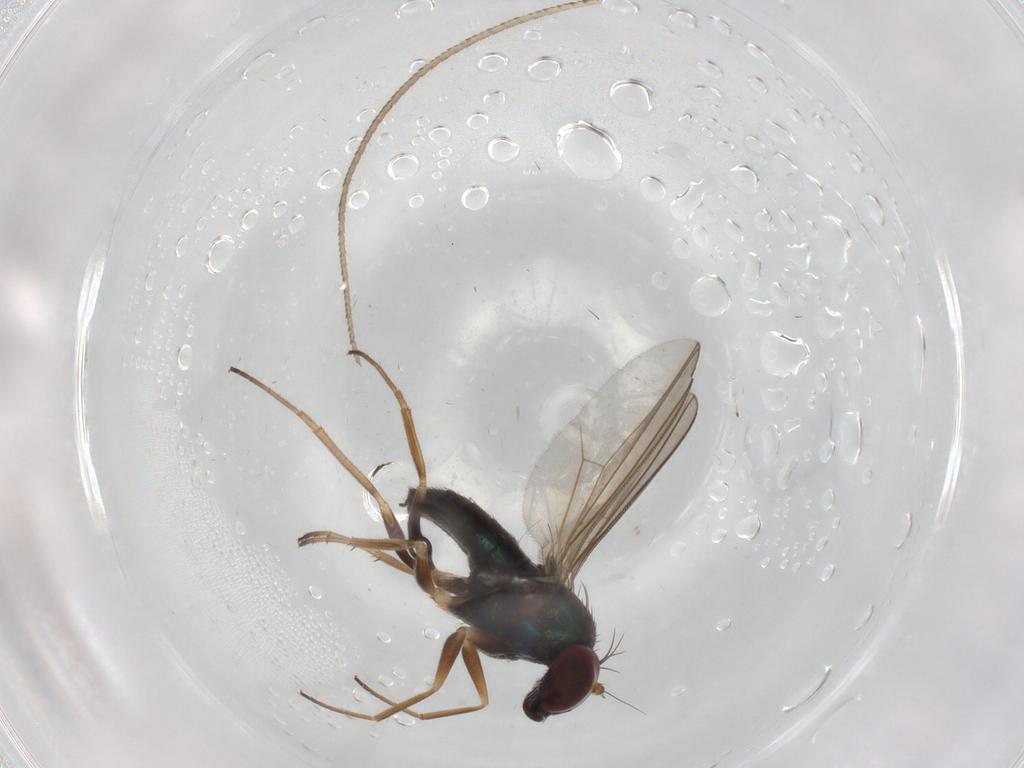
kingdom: Animalia
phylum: Arthropoda
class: Insecta
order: Diptera
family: Dolichopodidae
